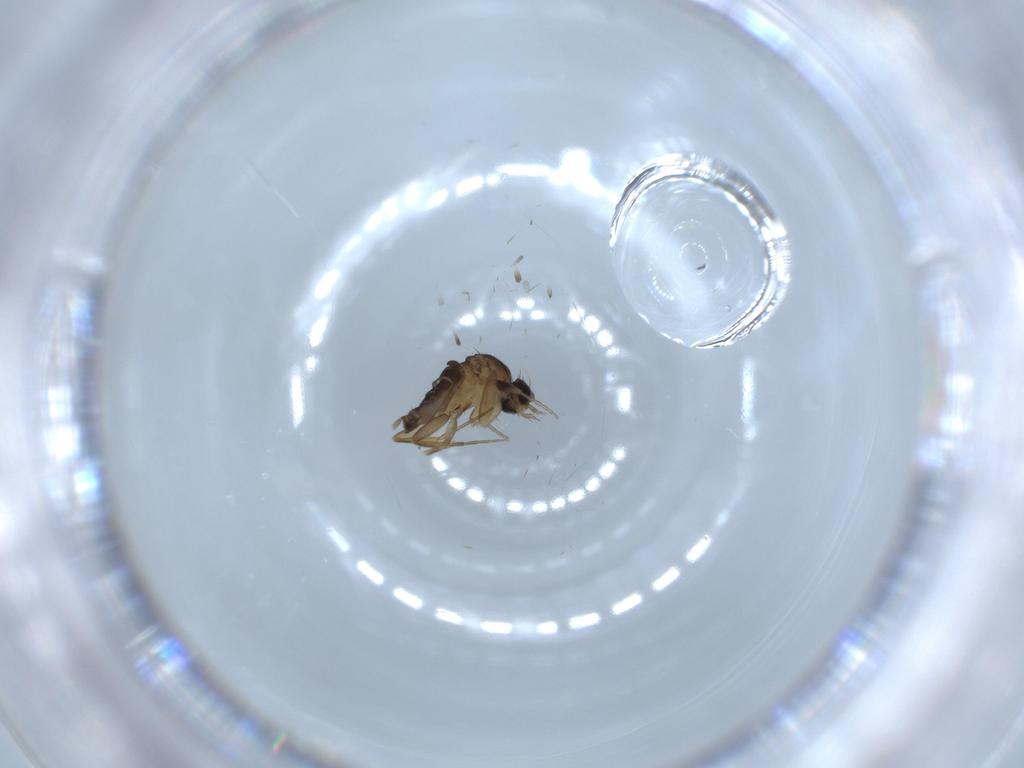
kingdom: Animalia
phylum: Arthropoda
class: Insecta
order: Diptera
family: Phoridae
